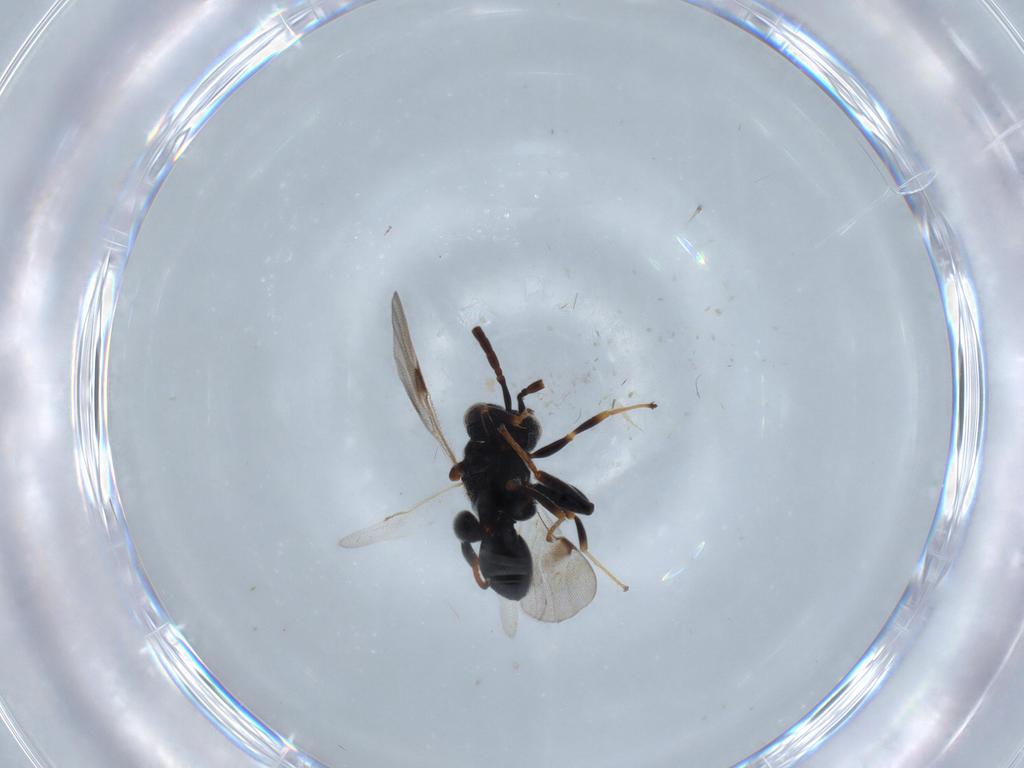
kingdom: Animalia
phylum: Arthropoda
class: Insecta
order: Hymenoptera
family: Chalcididae
